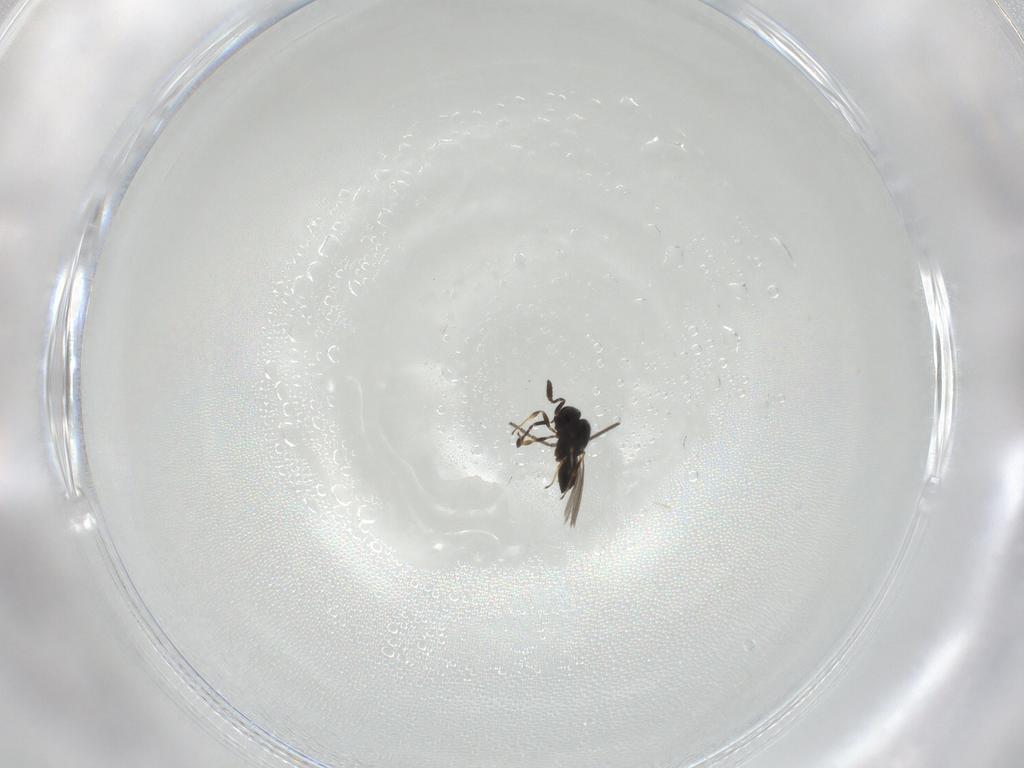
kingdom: Animalia
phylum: Arthropoda
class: Insecta
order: Hymenoptera
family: Scelionidae
